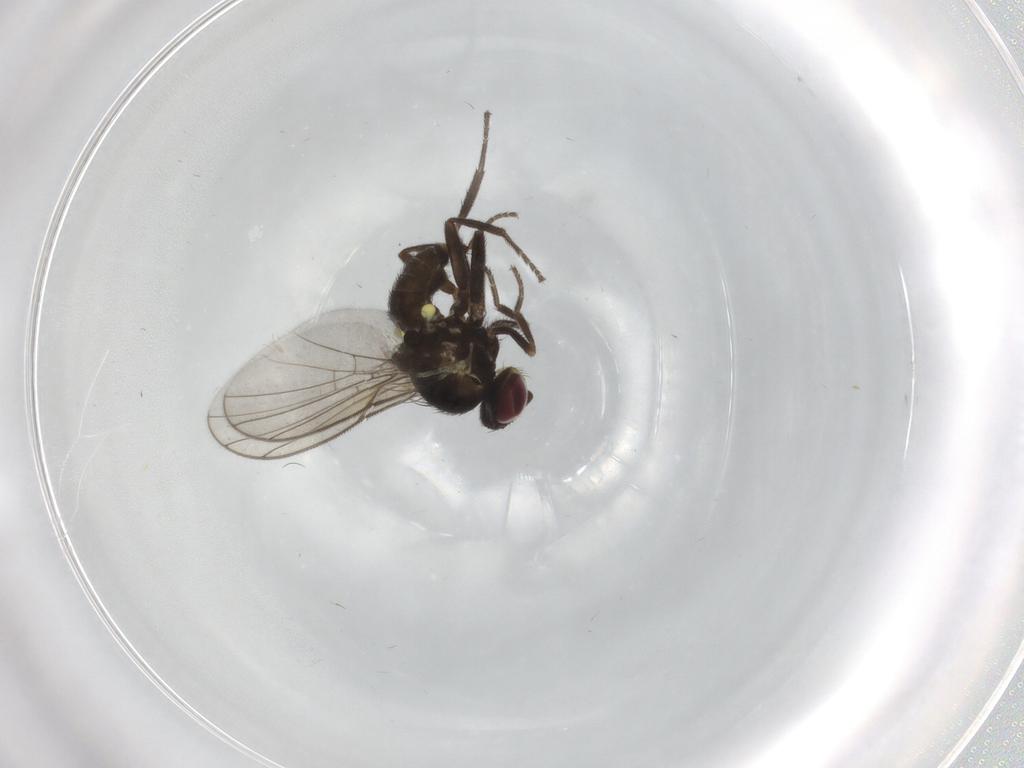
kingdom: Animalia
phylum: Arthropoda
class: Insecta
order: Diptera
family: Agromyzidae
